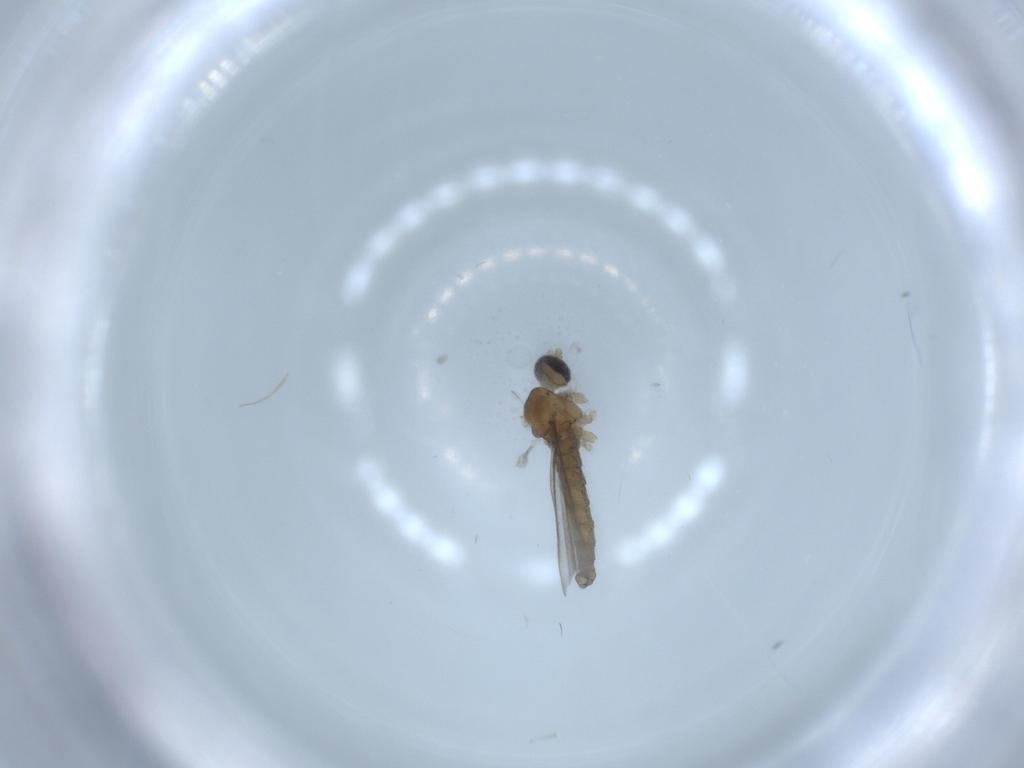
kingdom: Animalia
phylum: Arthropoda
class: Insecta
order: Diptera
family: Cecidomyiidae
